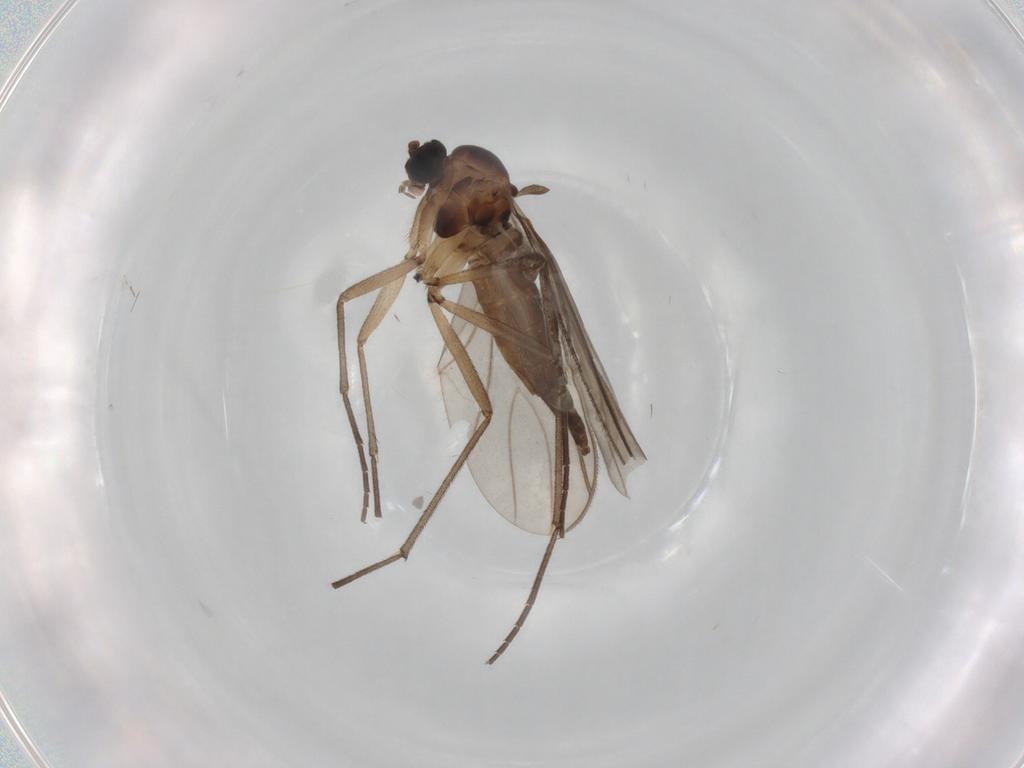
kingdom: Animalia
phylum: Arthropoda
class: Insecta
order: Diptera
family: Sciaridae
